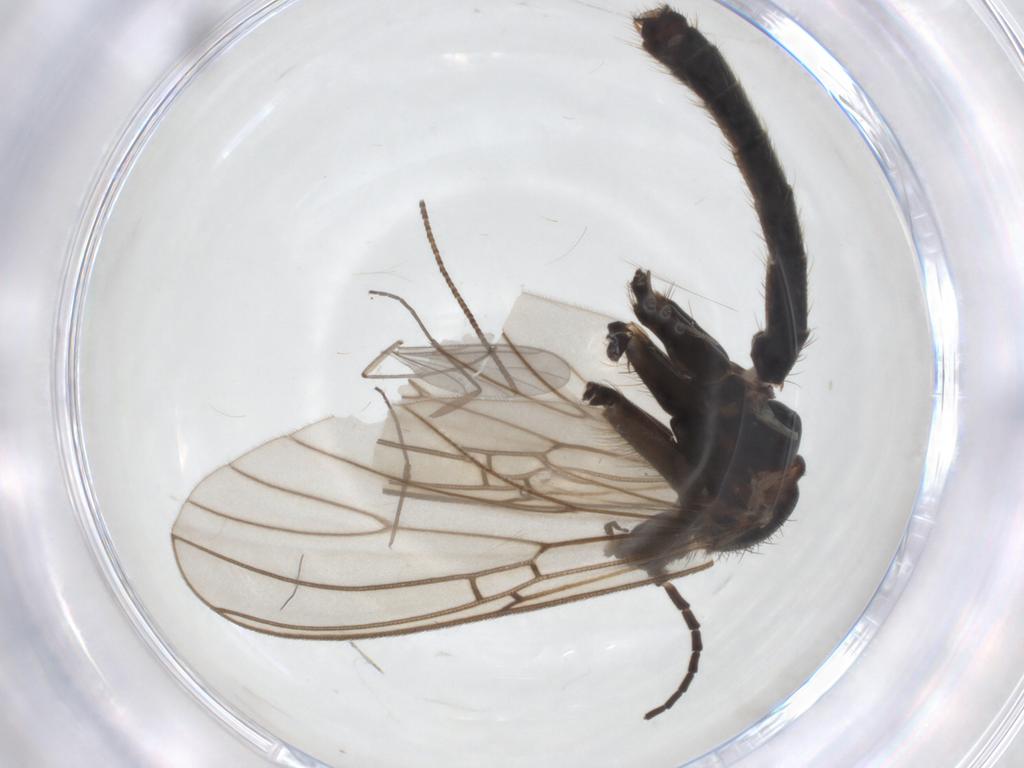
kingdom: Animalia
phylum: Arthropoda
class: Insecta
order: Diptera
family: Mycetophilidae
